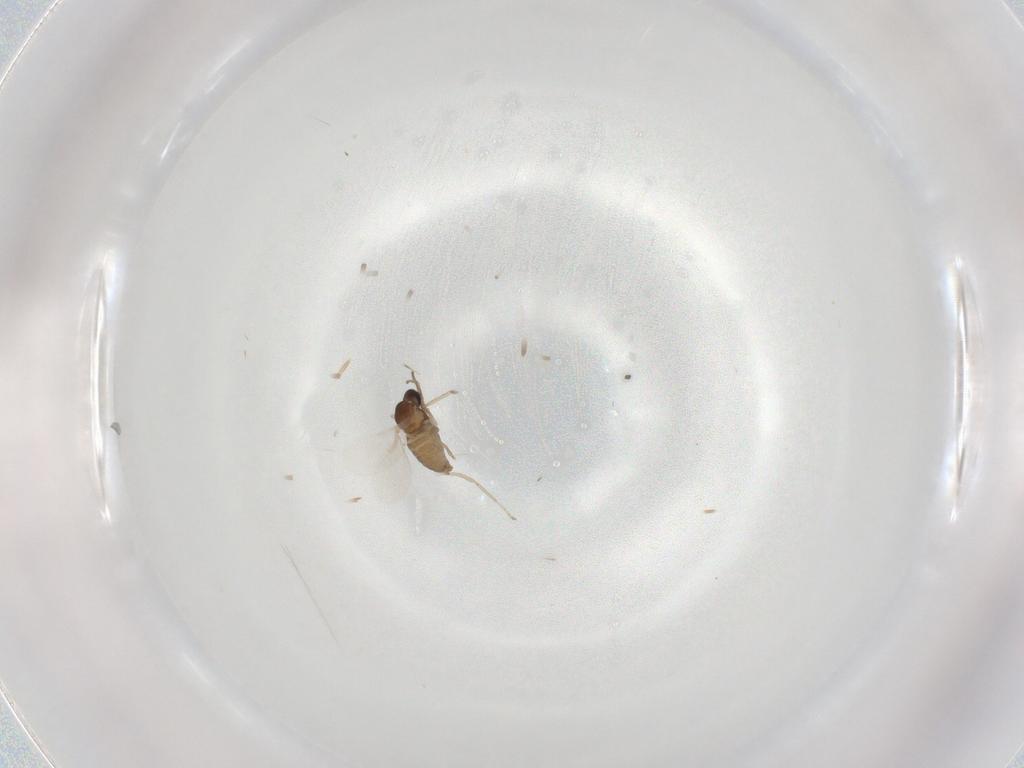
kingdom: Animalia
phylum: Arthropoda
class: Insecta
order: Diptera
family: Cecidomyiidae
